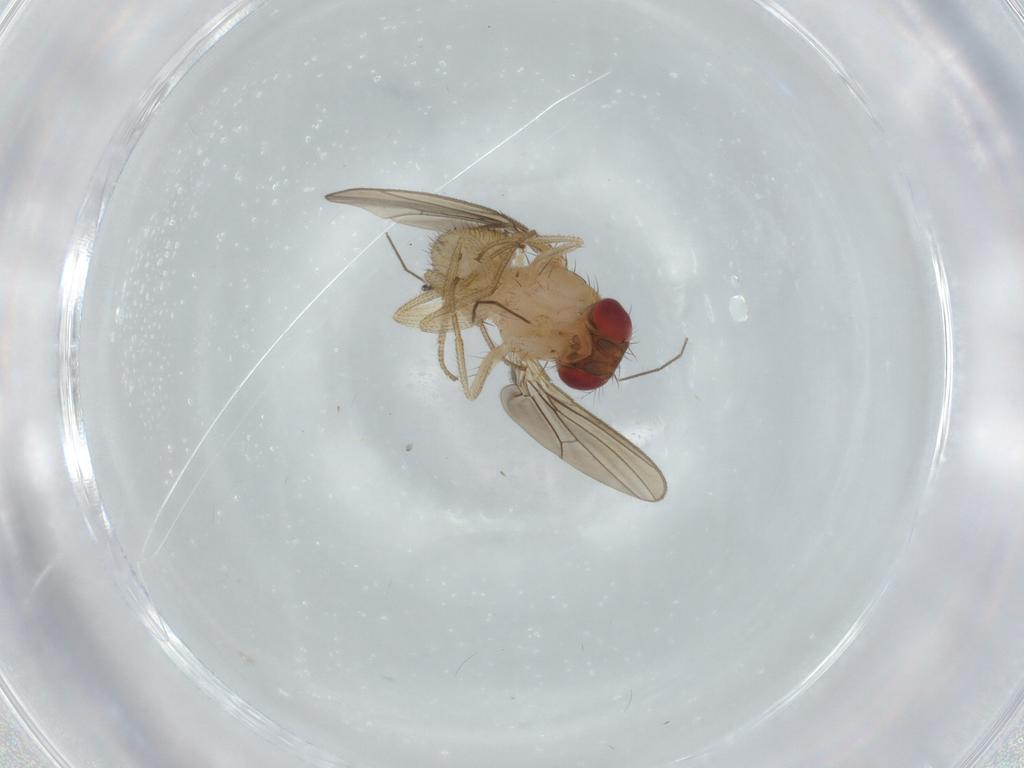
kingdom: Animalia
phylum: Arthropoda
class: Insecta
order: Diptera
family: Drosophilidae
